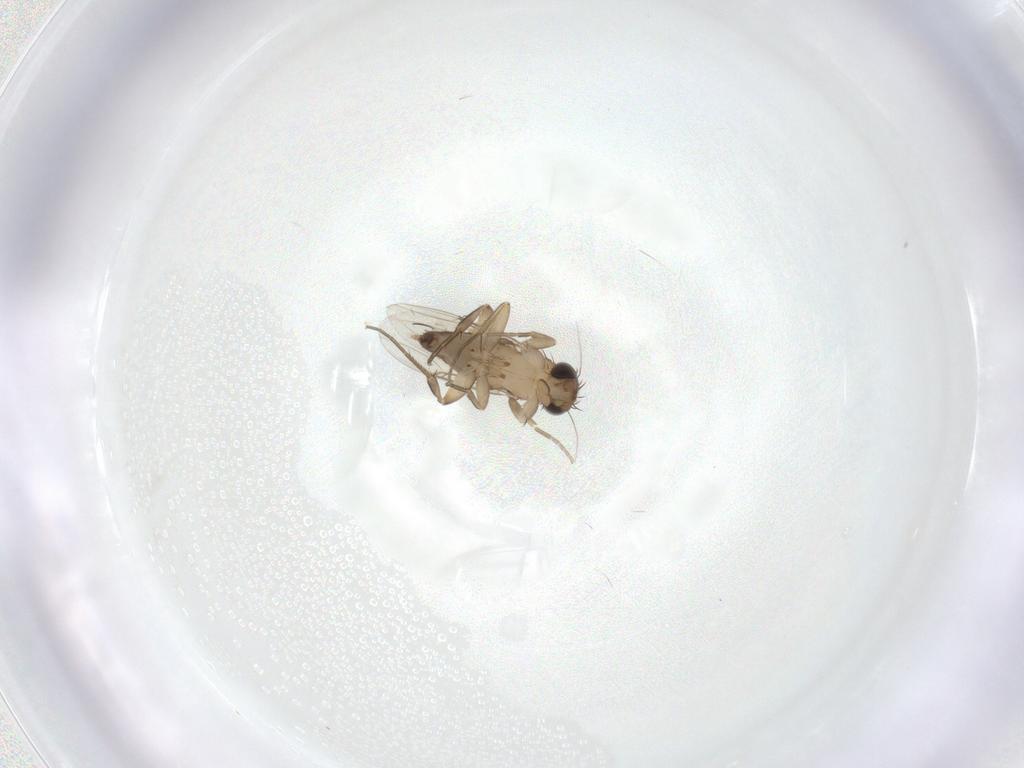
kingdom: Animalia
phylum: Arthropoda
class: Insecta
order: Diptera
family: Phoridae
